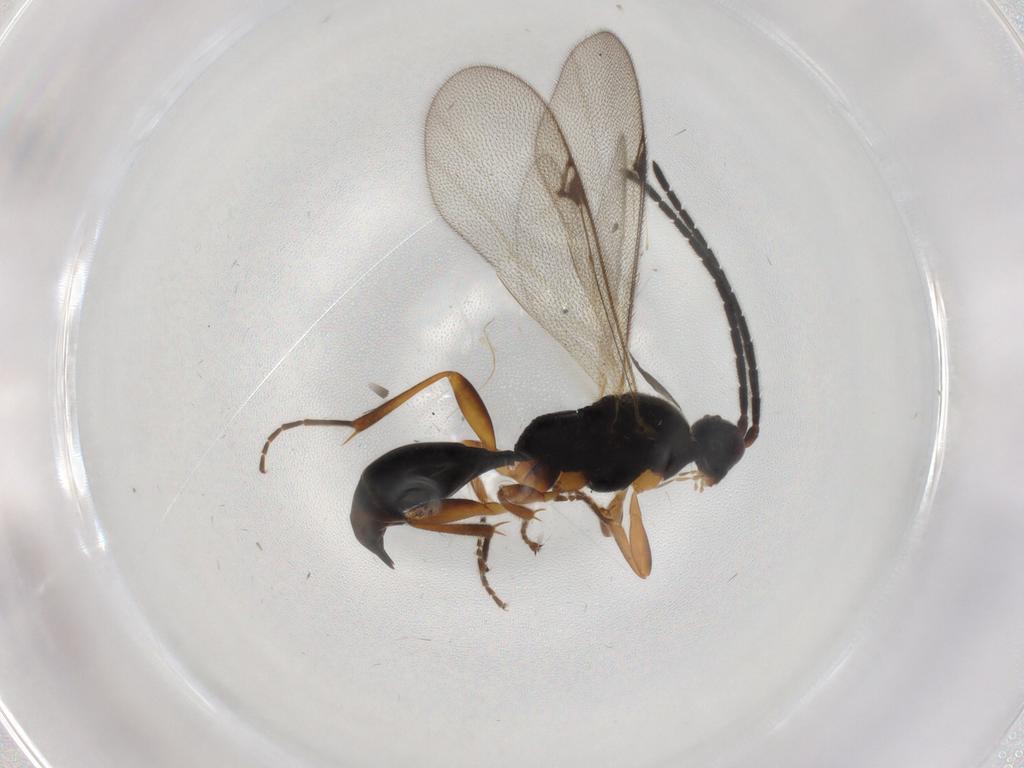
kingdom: Animalia
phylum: Arthropoda
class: Insecta
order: Hymenoptera
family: Proctotrupidae
